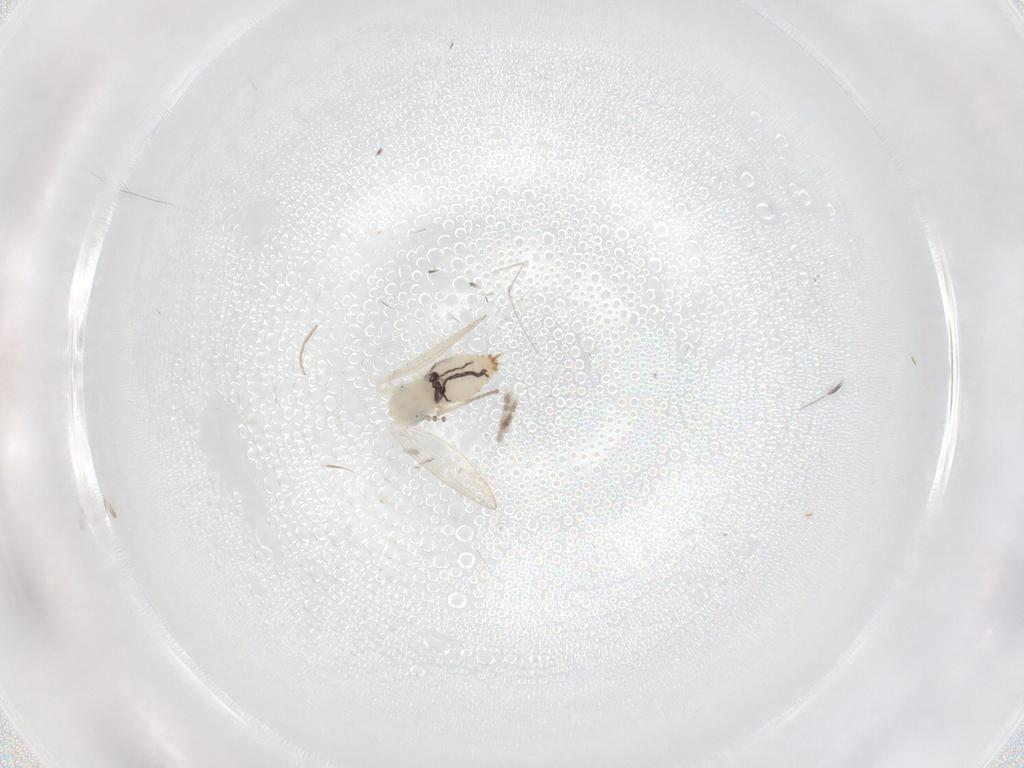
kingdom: Animalia
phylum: Arthropoda
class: Insecta
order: Diptera
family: Psychodidae
